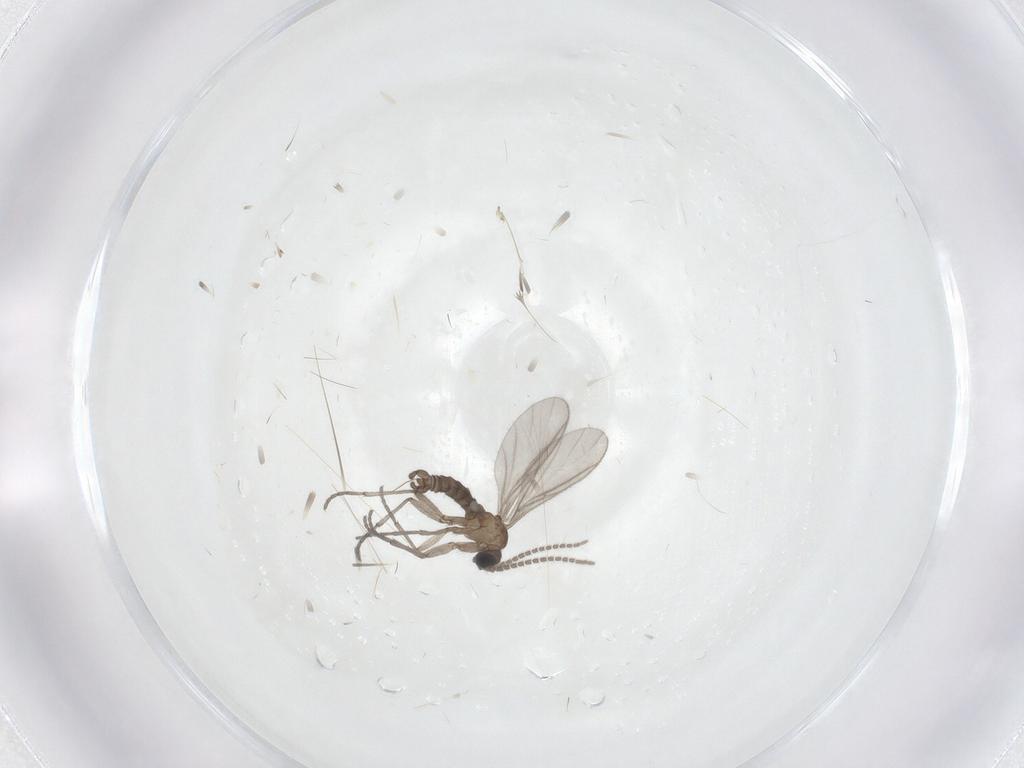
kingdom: Animalia
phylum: Arthropoda
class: Insecta
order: Diptera
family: Sciaridae
